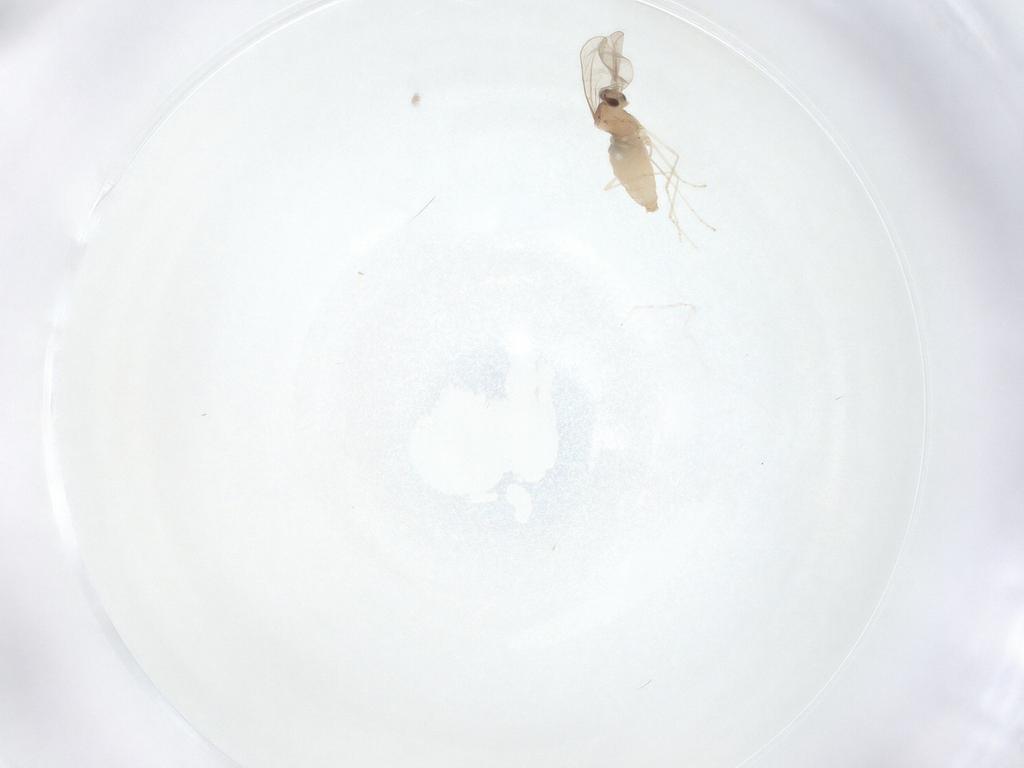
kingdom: Animalia
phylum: Arthropoda
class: Insecta
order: Diptera
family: Cecidomyiidae
